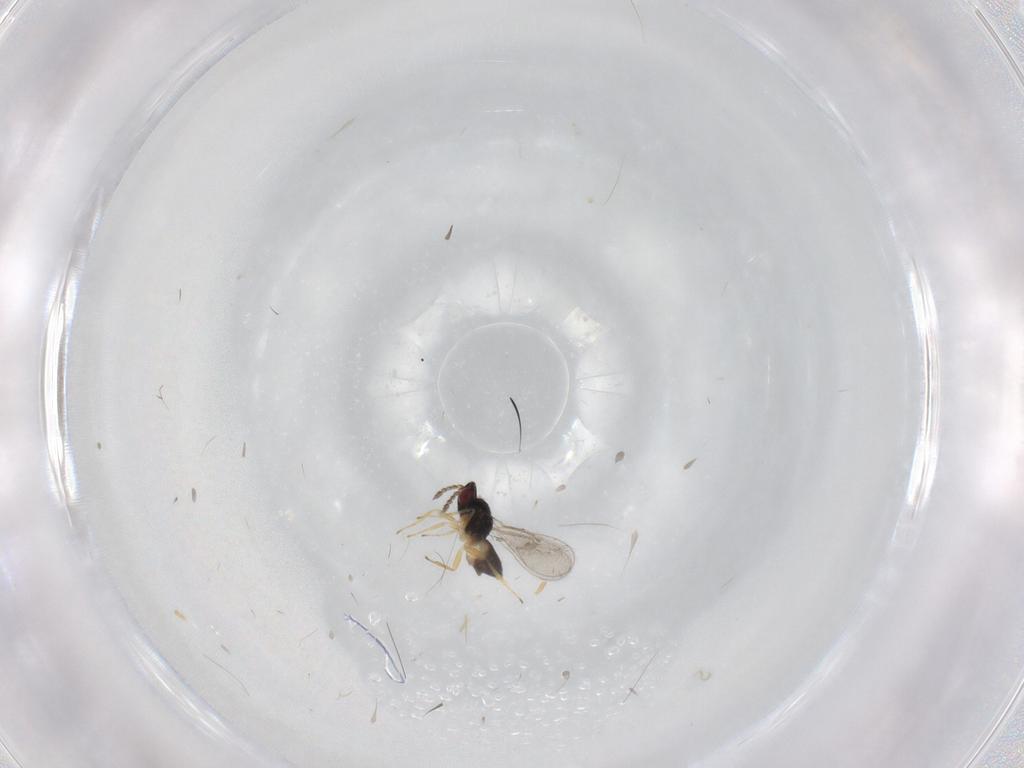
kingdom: Animalia
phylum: Arthropoda
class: Insecta
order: Hymenoptera
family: Eulophidae
